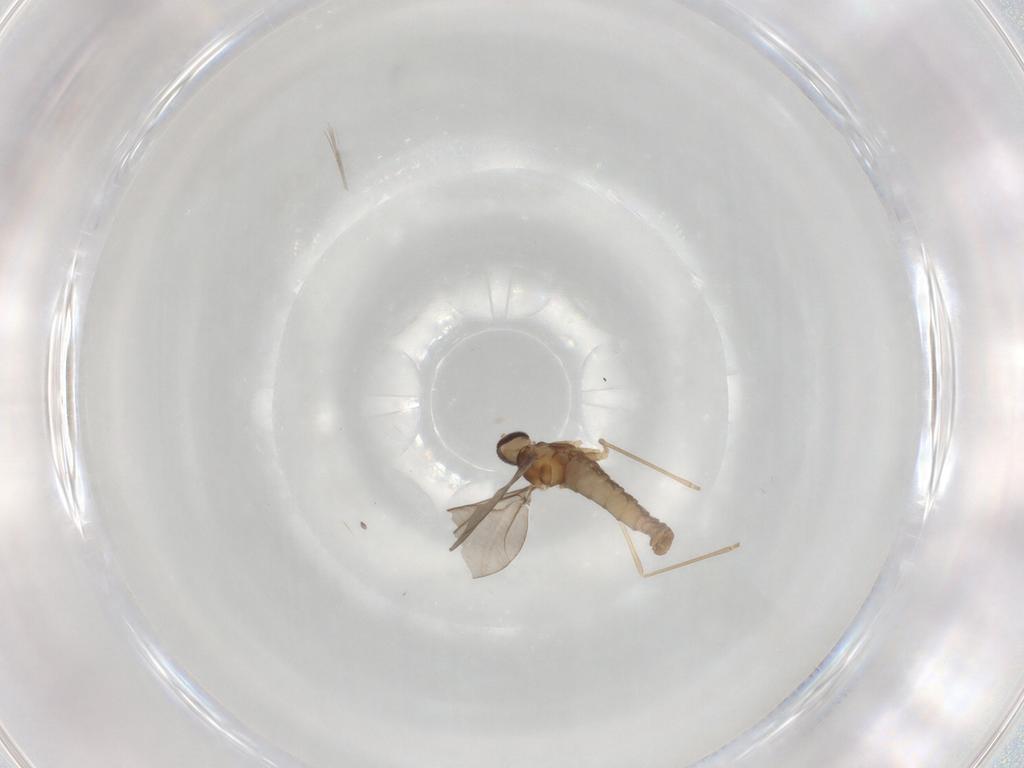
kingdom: Animalia
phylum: Arthropoda
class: Insecta
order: Diptera
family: Cecidomyiidae
